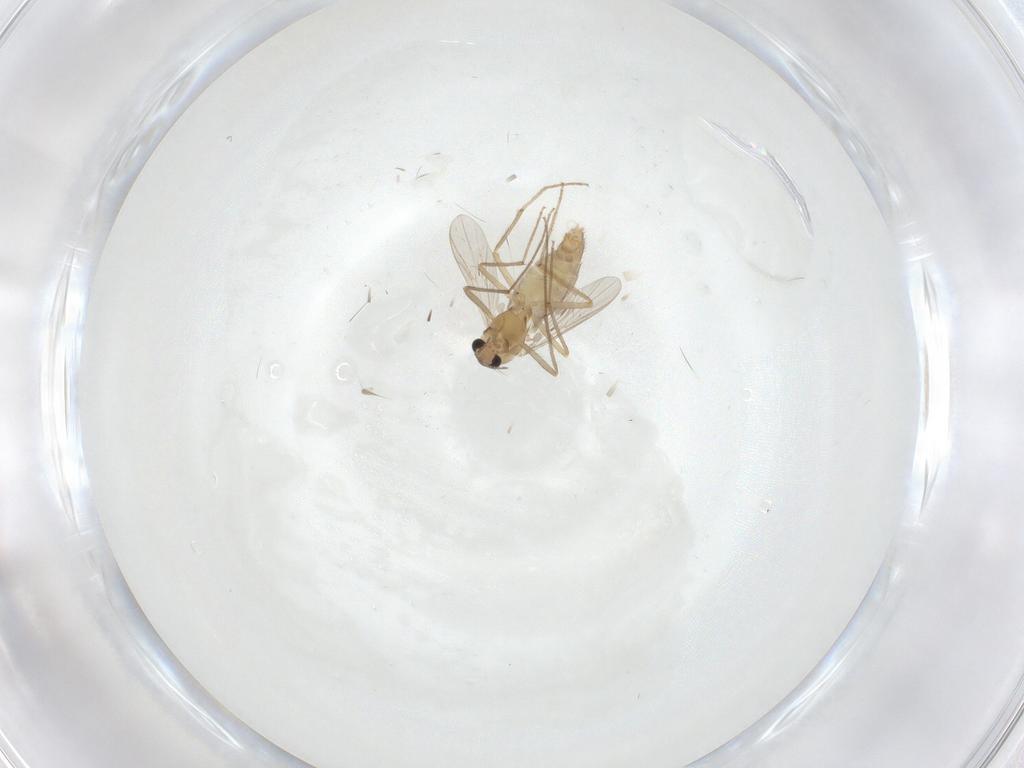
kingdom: Animalia
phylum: Arthropoda
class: Insecta
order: Diptera
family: Chironomidae
